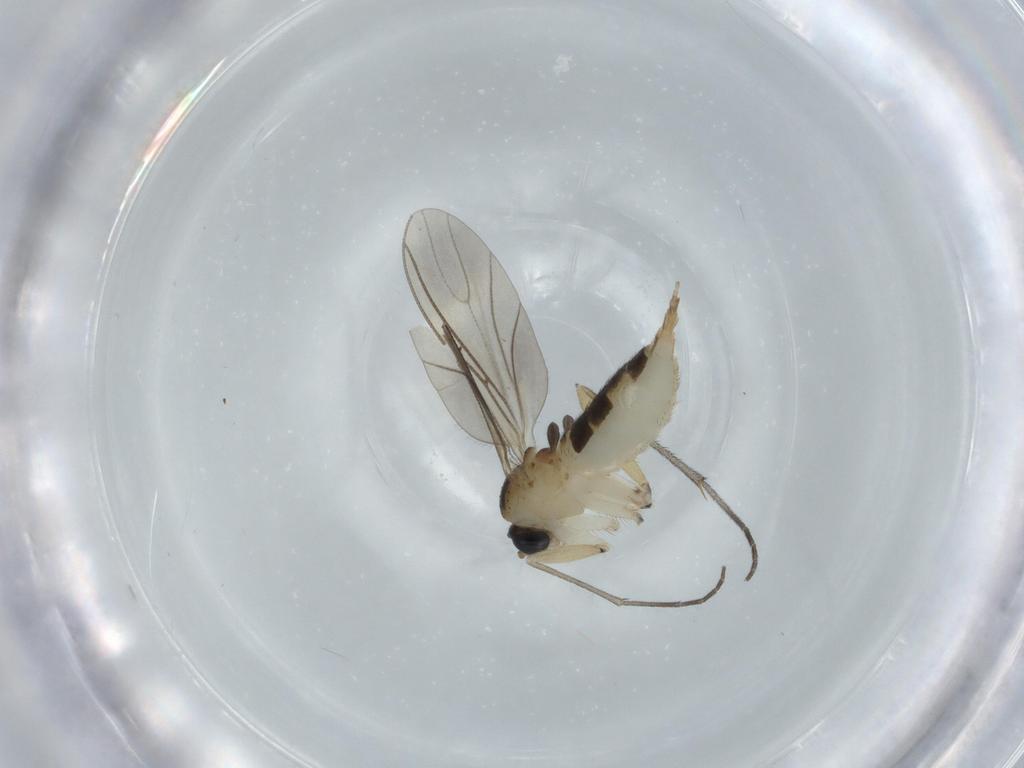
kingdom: Animalia
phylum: Arthropoda
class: Insecta
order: Diptera
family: Sciaridae
